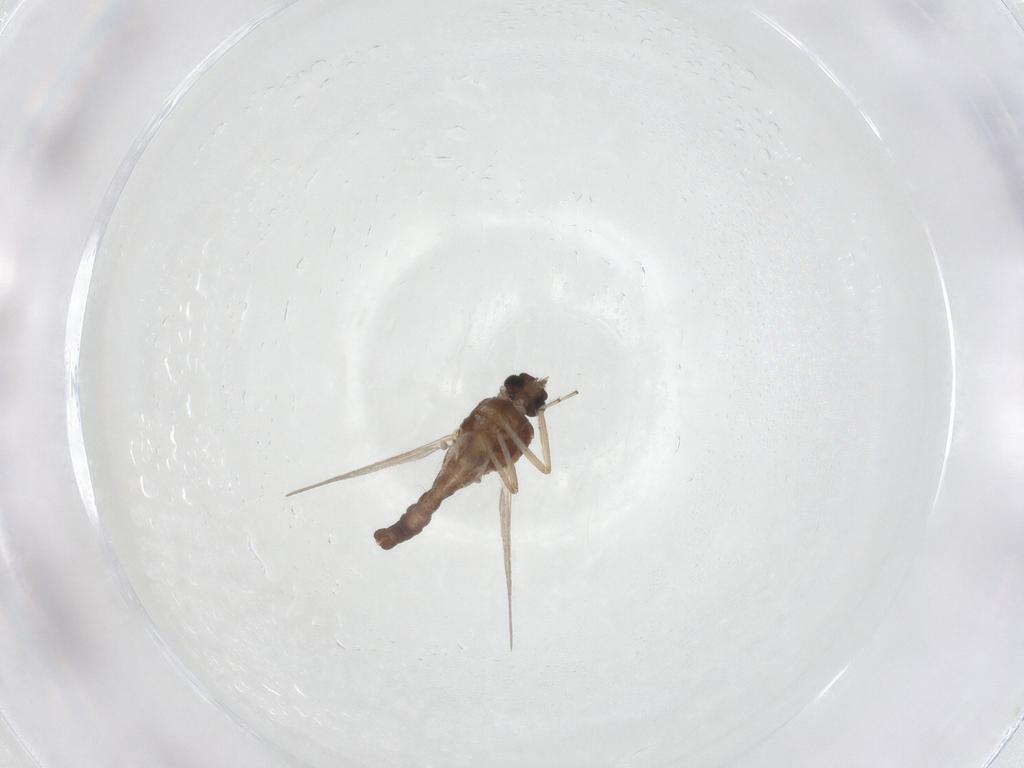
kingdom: Animalia
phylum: Arthropoda
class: Insecta
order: Diptera
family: Ceratopogonidae
